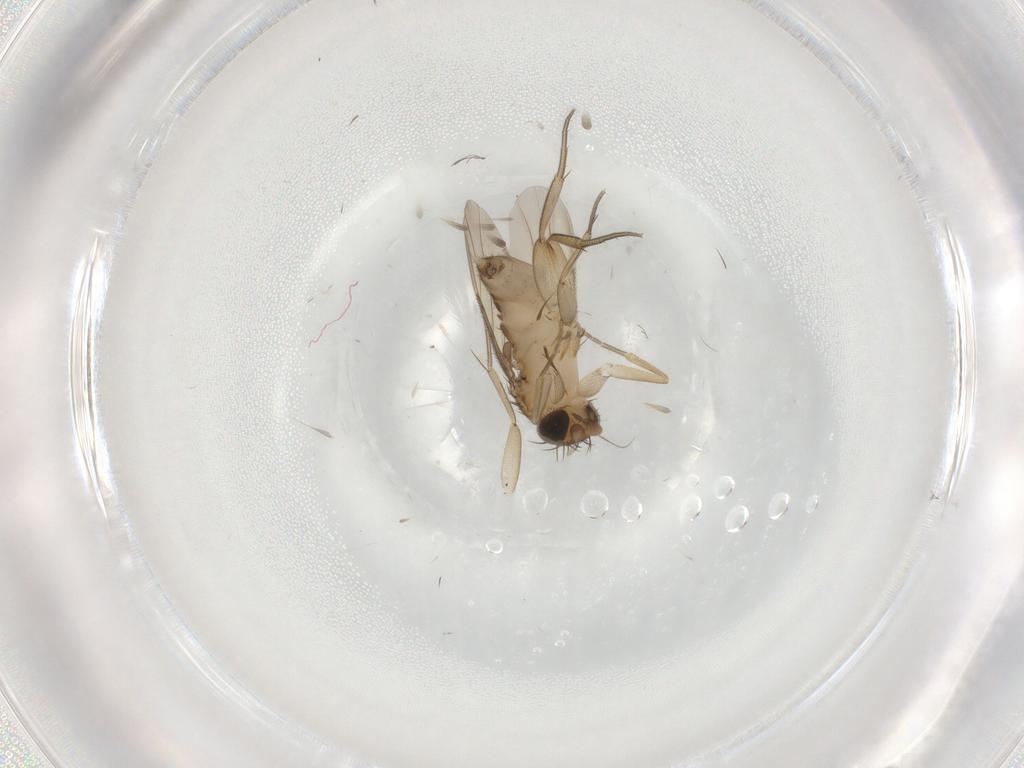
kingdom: Animalia
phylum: Arthropoda
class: Insecta
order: Diptera
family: Phoridae
